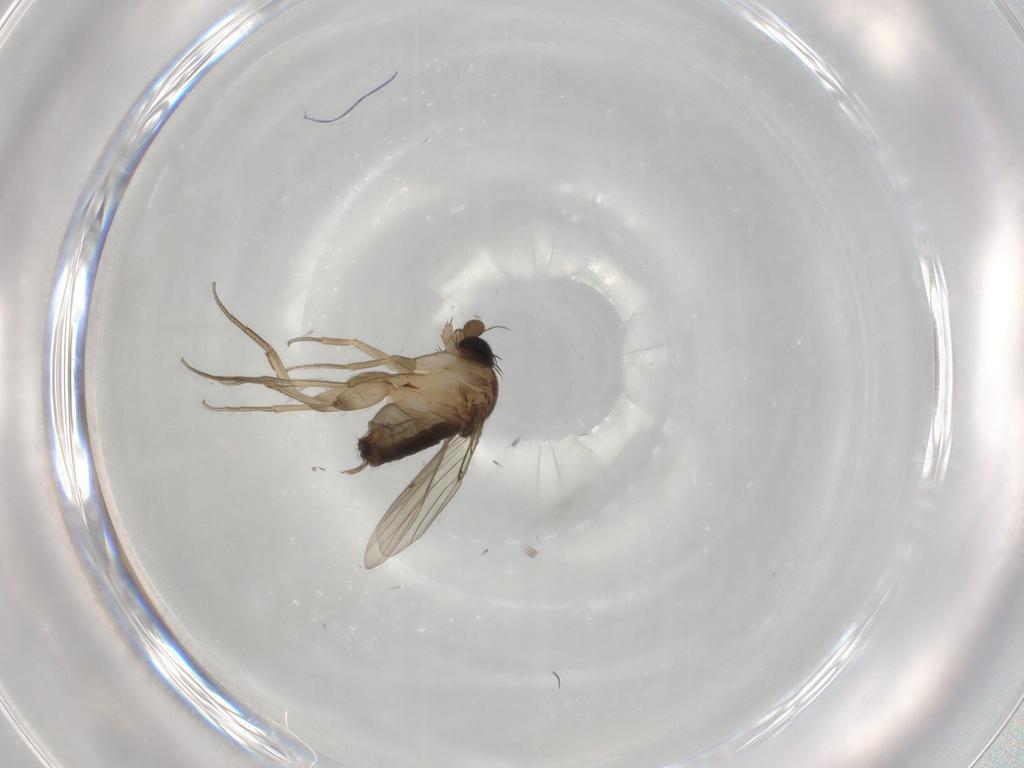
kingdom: Animalia
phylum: Arthropoda
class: Insecta
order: Diptera
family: Phoridae
